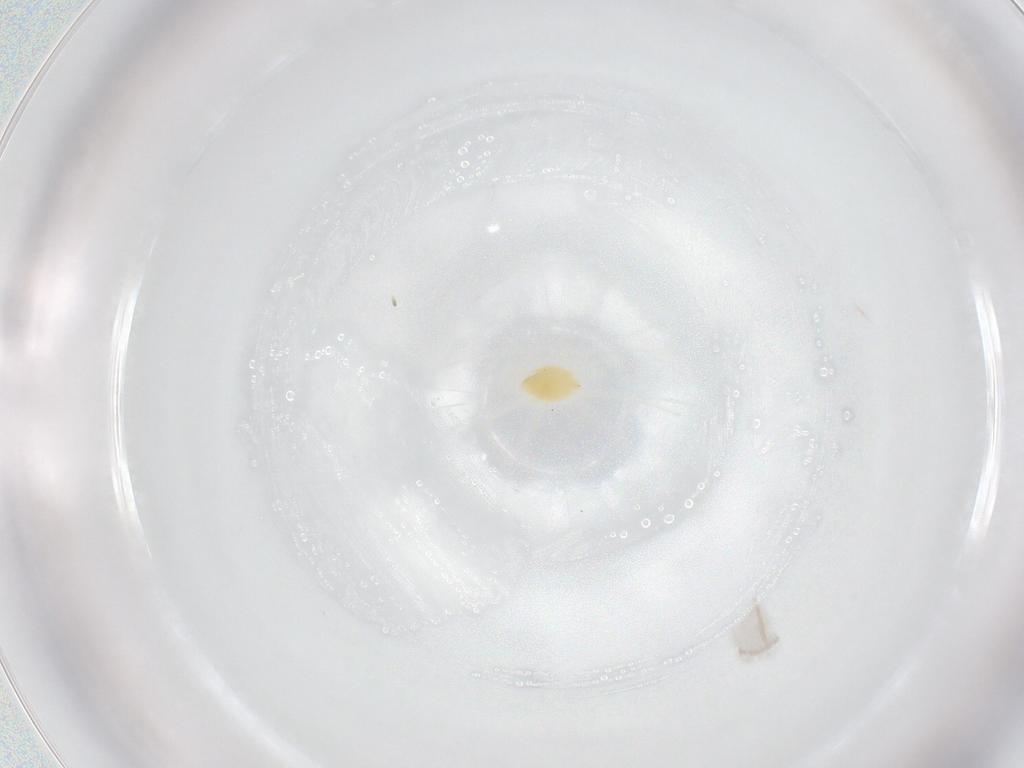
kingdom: Animalia
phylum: Arthropoda
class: Arachnida
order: Trombidiformes
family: Tetranychidae
